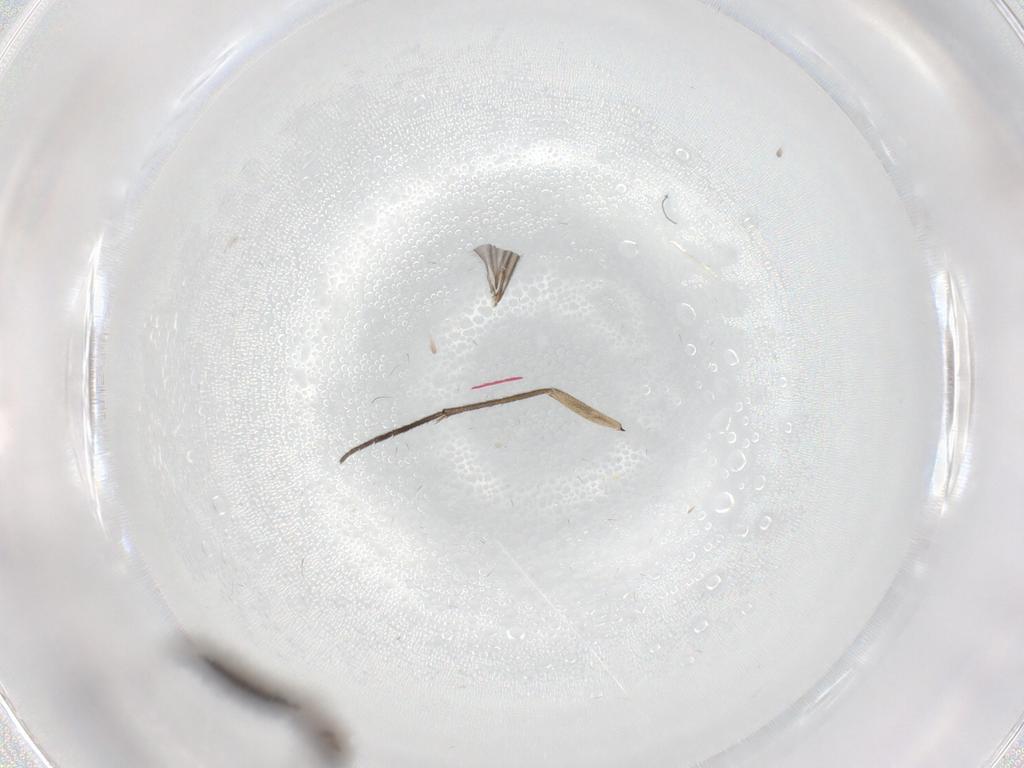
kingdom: Animalia
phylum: Arthropoda
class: Insecta
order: Diptera
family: Sciaridae
